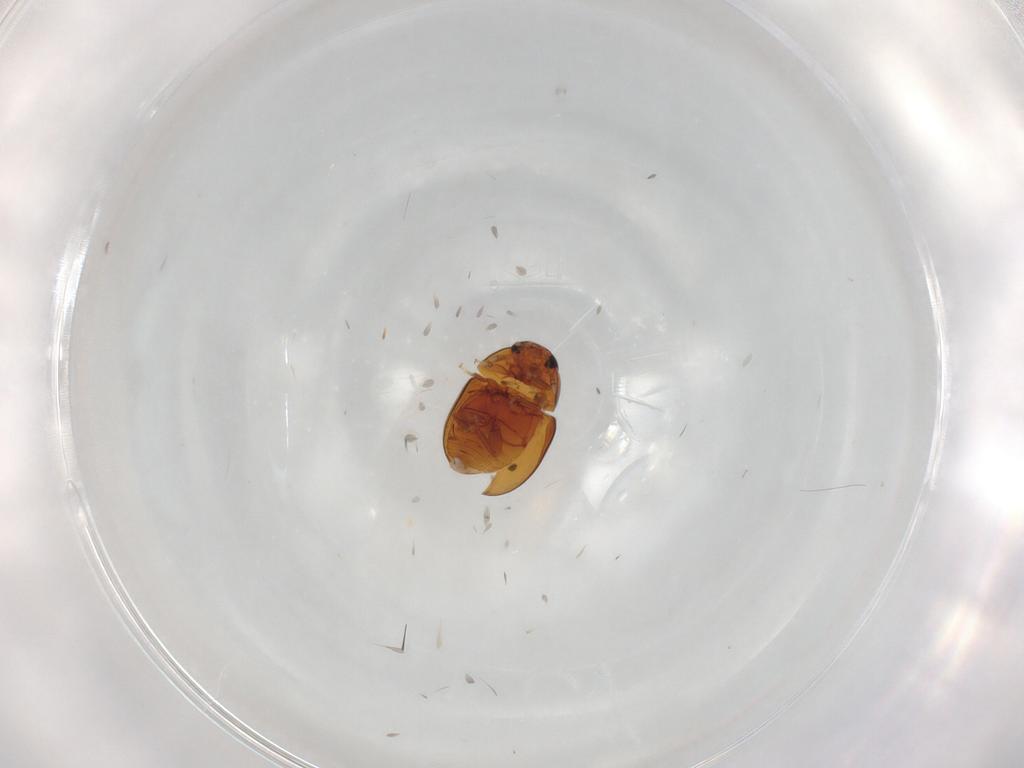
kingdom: Animalia
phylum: Arthropoda
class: Insecta
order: Coleoptera
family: Phalacridae
